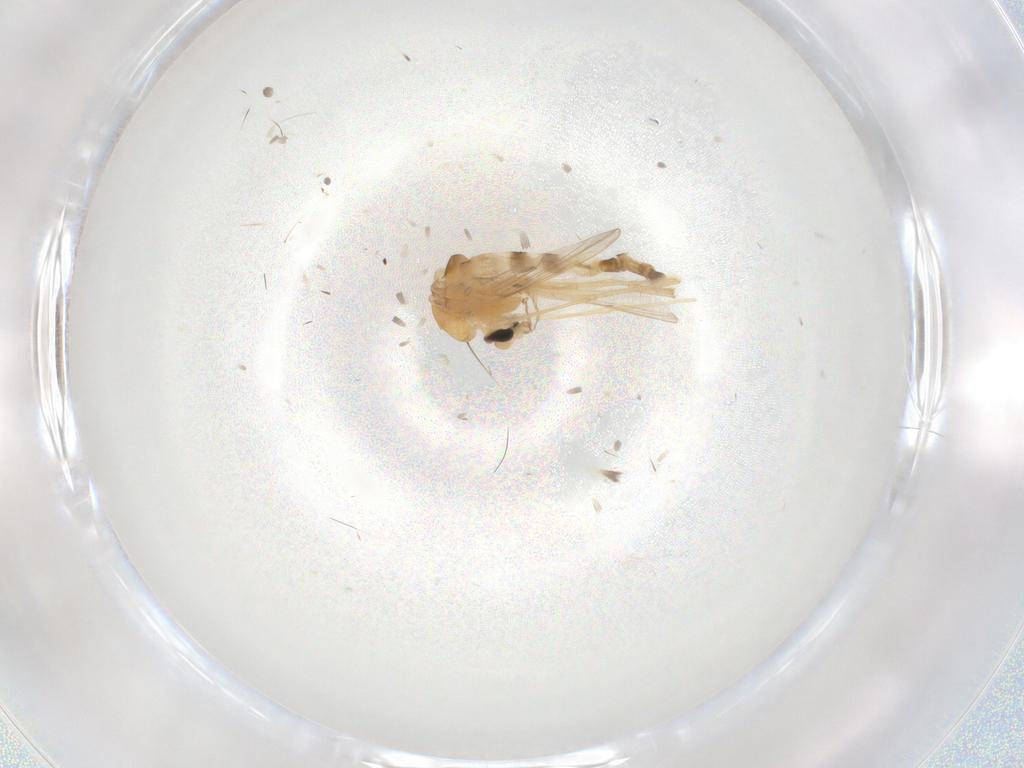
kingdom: Animalia
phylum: Arthropoda
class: Insecta
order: Diptera
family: Chironomidae
